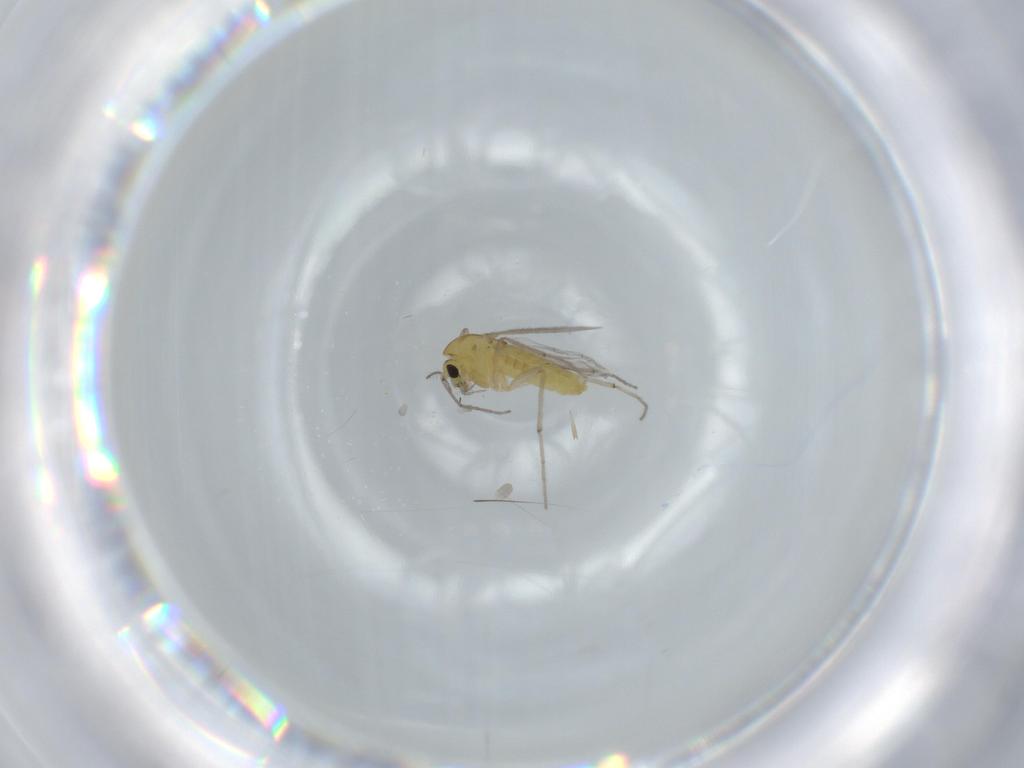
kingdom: Animalia
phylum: Arthropoda
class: Insecta
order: Diptera
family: Chironomidae
